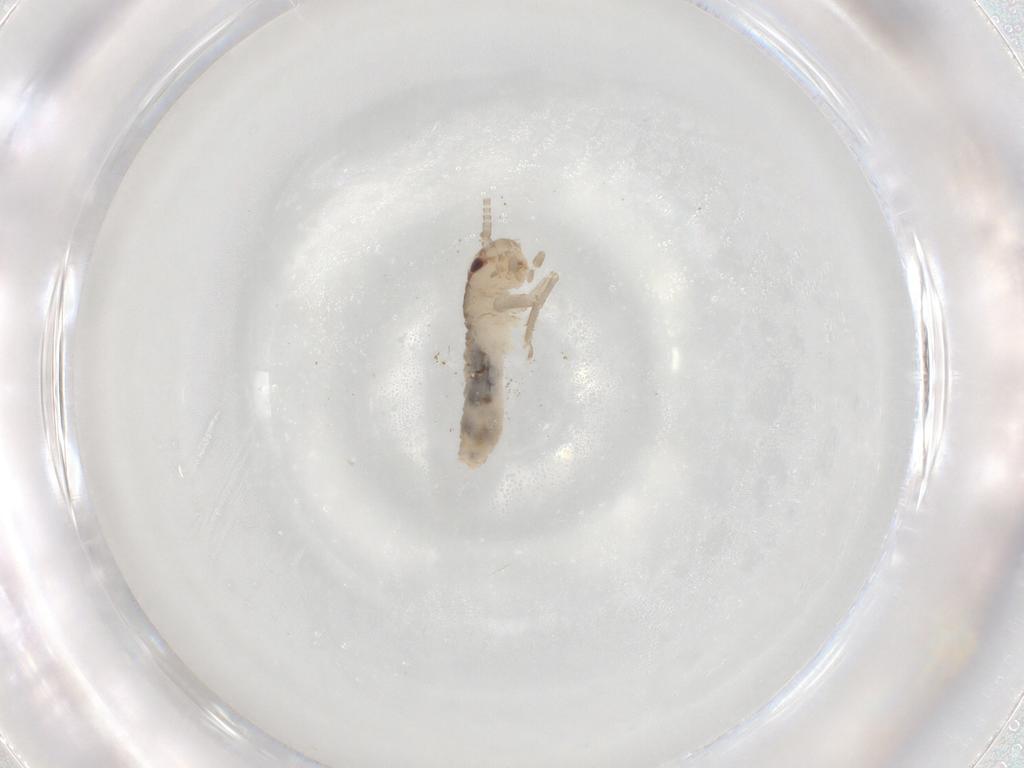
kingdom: Animalia
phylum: Arthropoda
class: Insecta
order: Orthoptera
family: Gryllidae
